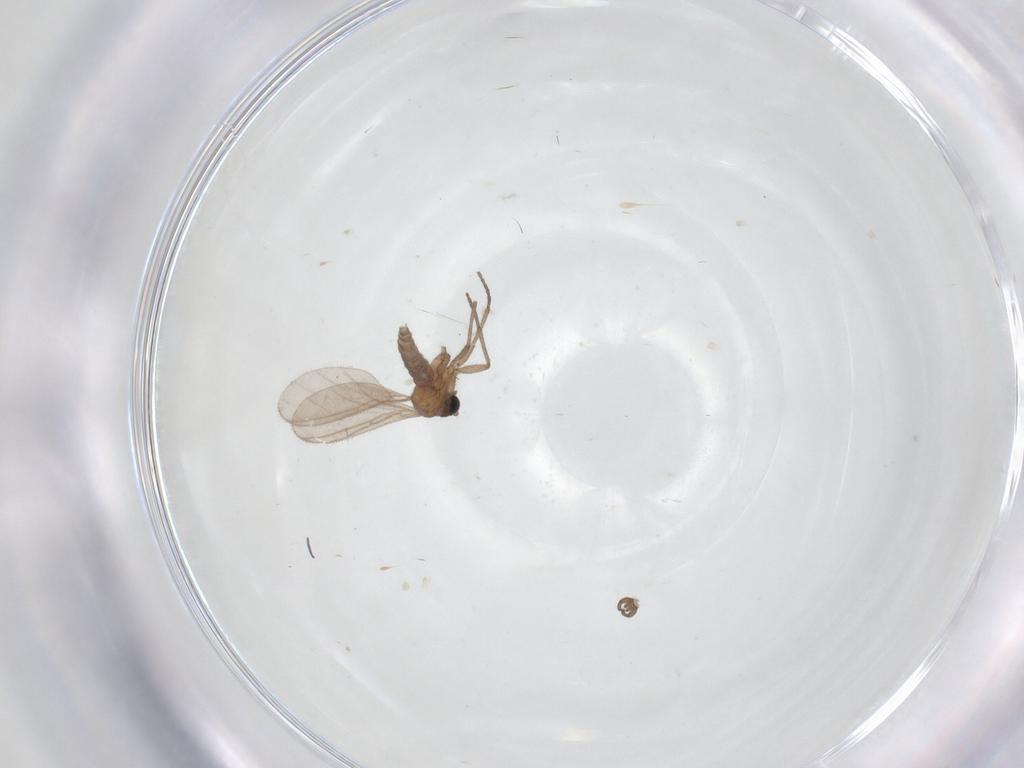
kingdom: Animalia
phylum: Arthropoda
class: Insecta
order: Diptera
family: Sciaridae
